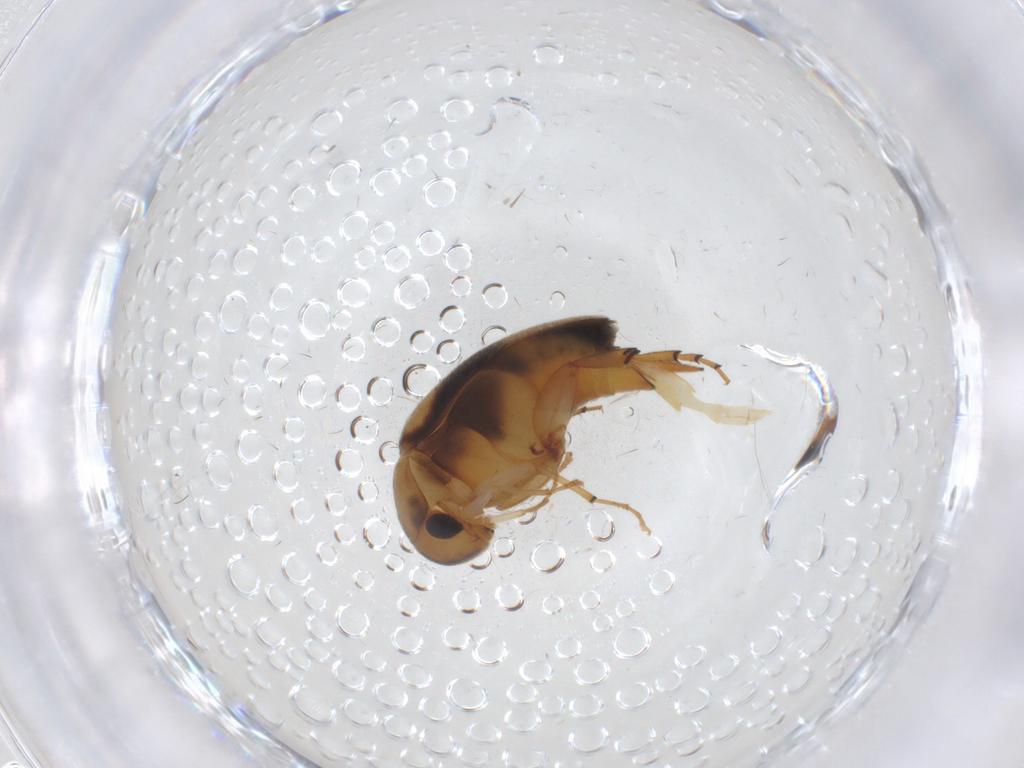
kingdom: Animalia
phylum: Arthropoda
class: Insecta
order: Coleoptera
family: Mordellidae
